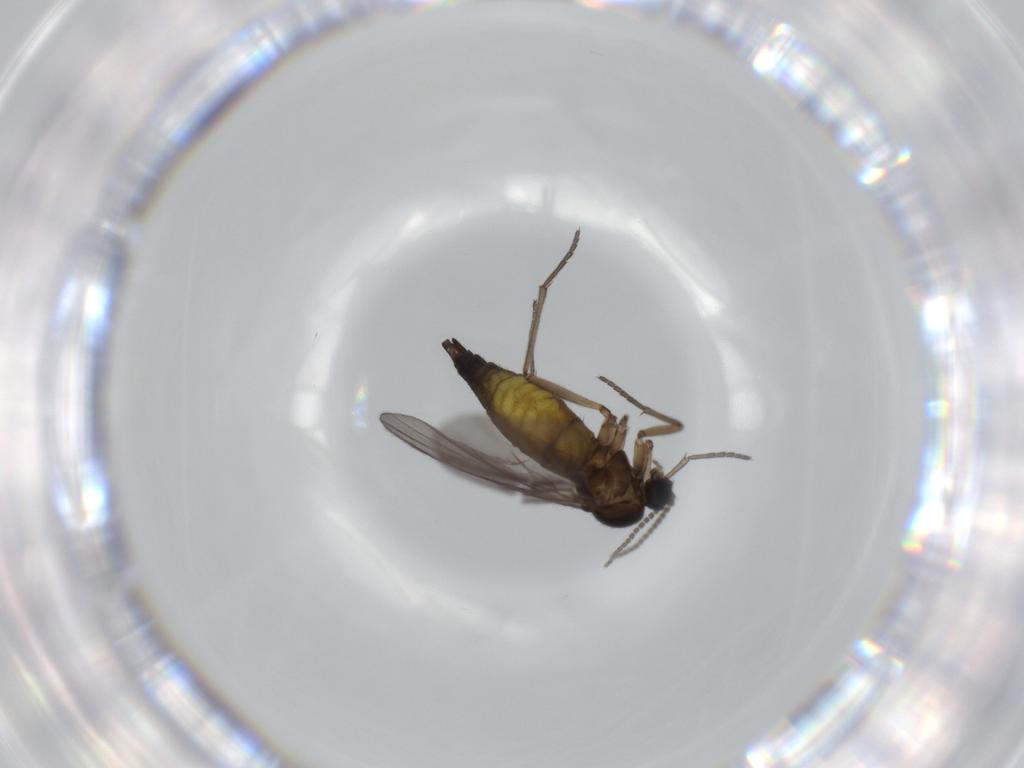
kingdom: Animalia
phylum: Arthropoda
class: Insecta
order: Diptera
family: Sciaridae
